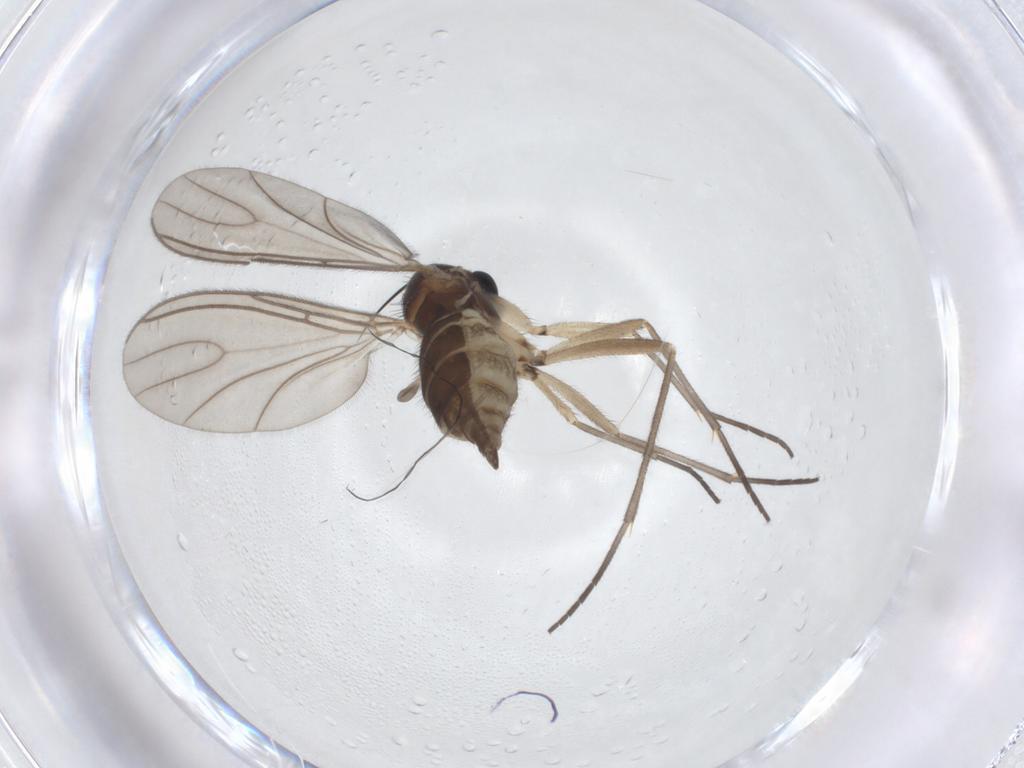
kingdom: Animalia
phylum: Arthropoda
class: Insecta
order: Diptera
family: Sciaridae
